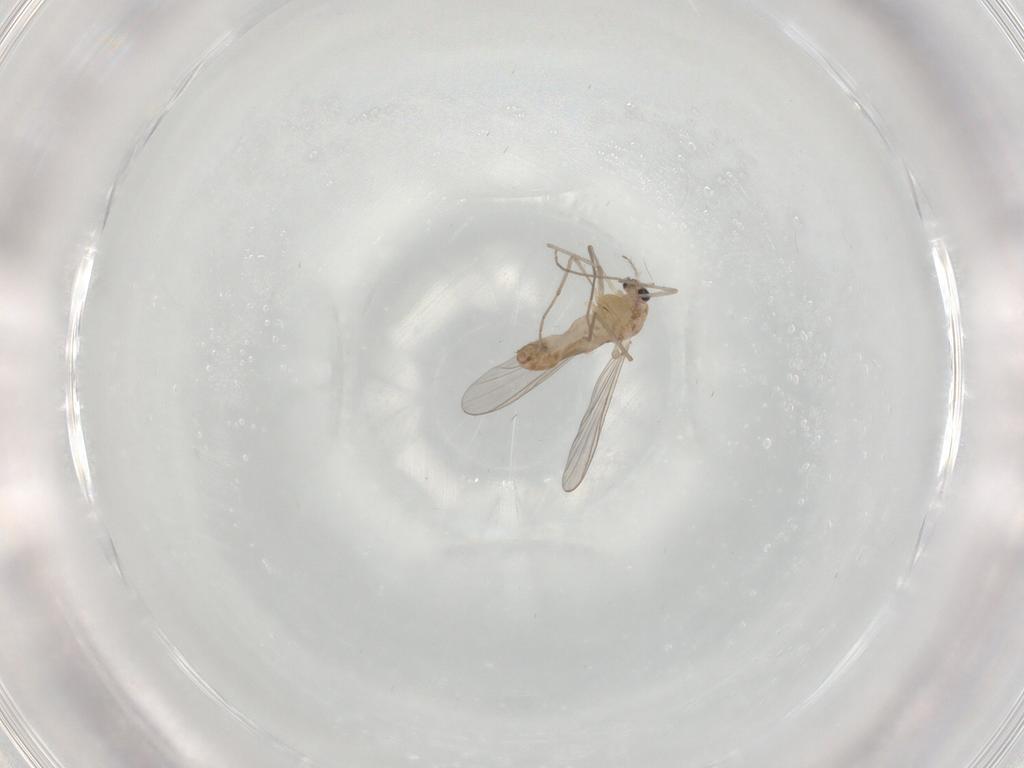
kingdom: Animalia
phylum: Arthropoda
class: Insecta
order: Diptera
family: Chironomidae
